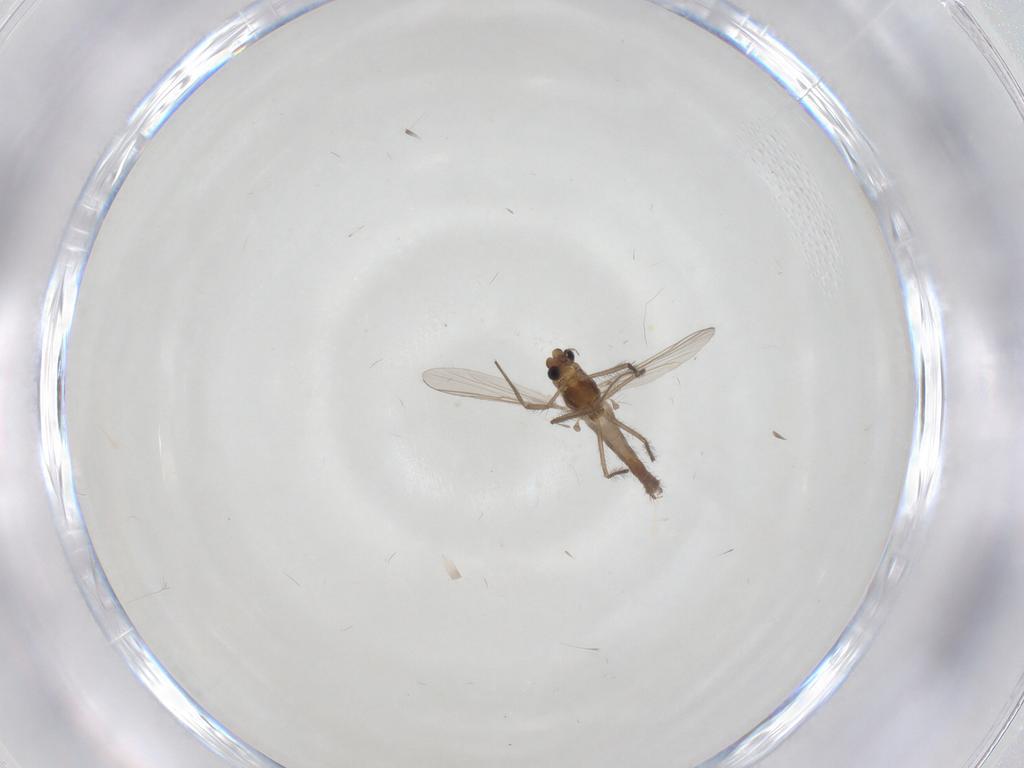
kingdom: Animalia
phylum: Arthropoda
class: Insecta
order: Diptera
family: Chironomidae
